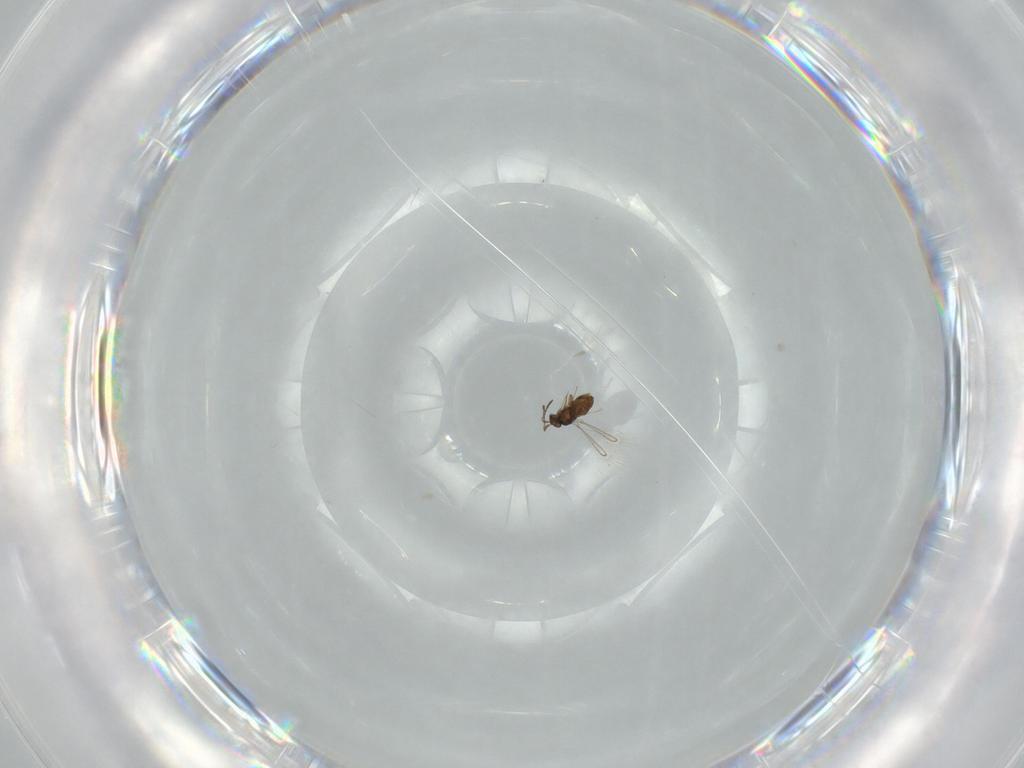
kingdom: Animalia
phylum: Arthropoda
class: Insecta
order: Hymenoptera
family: Mymaridae
